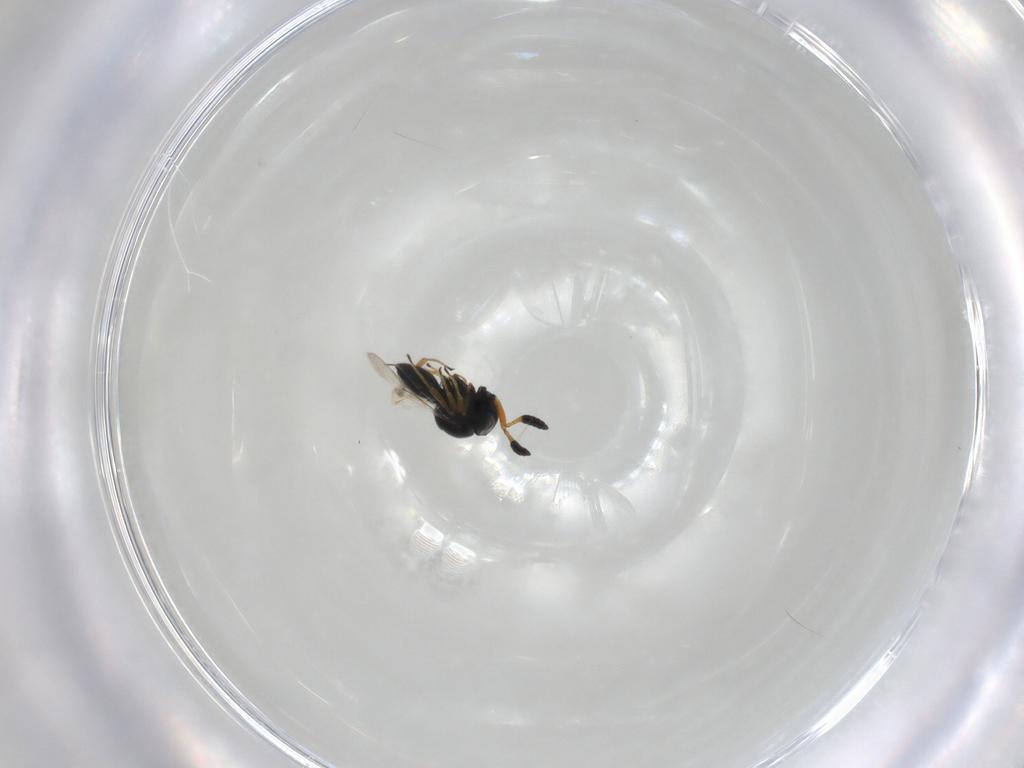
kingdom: Animalia
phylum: Arthropoda
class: Insecta
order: Hymenoptera
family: Scelionidae
